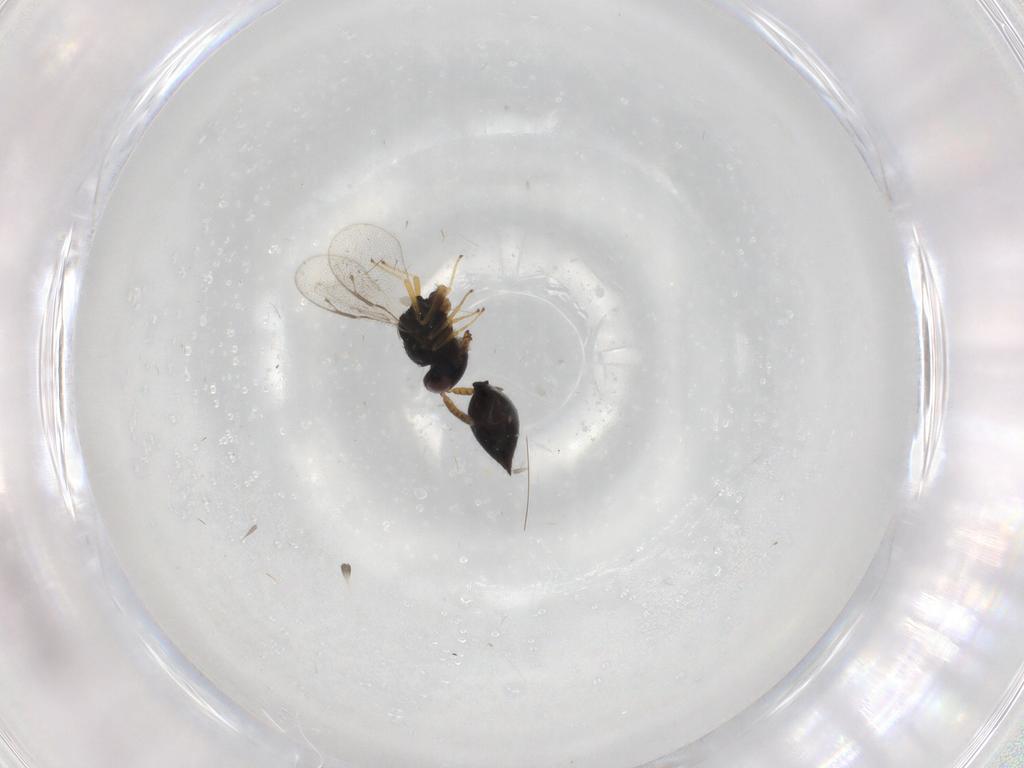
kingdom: Animalia
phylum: Arthropoda
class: Insecta
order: Hymenoptera
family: Pteromalidae
